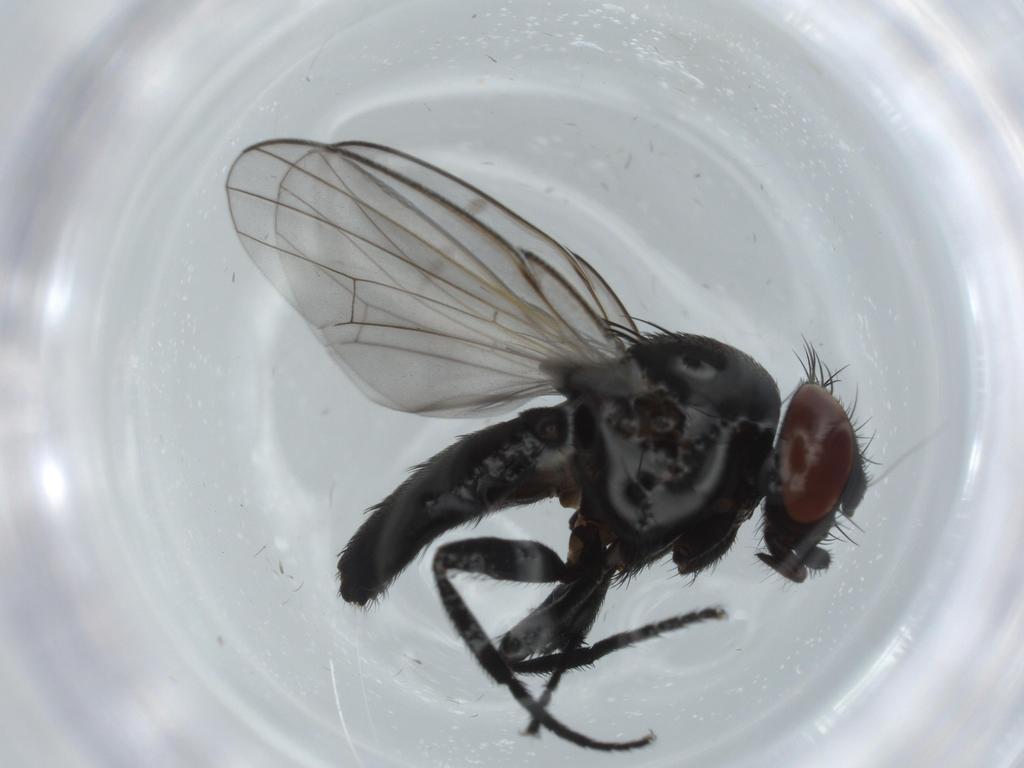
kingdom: Animalia
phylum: Arthropoda
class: Insecta
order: Diptera
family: Milichiidae
